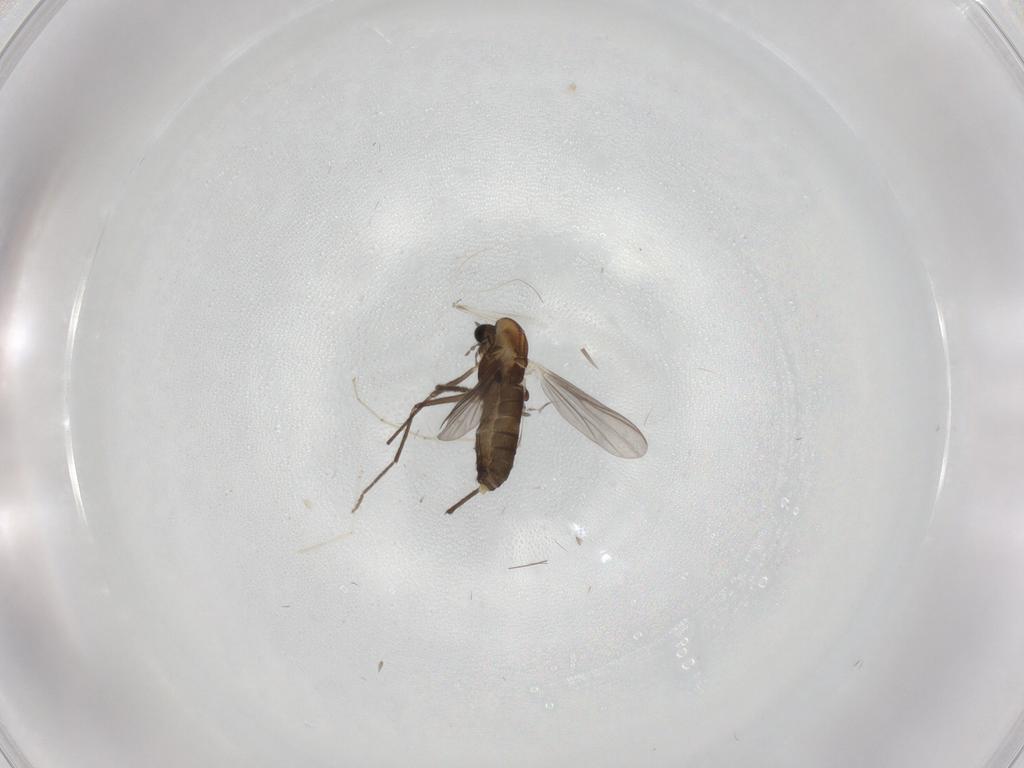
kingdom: Animalia
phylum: Arthropoda
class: Insecta
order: Diptera
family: Chironomidae
